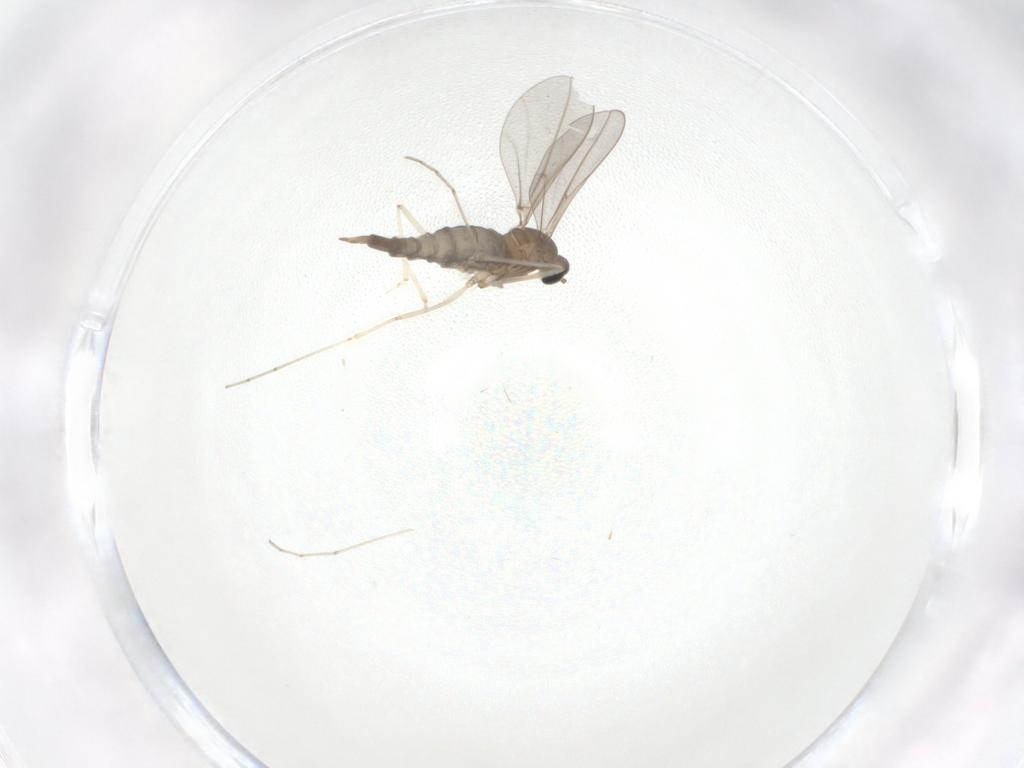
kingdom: Animalia
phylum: Arthropoda
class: Insecta
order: Diptera
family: Cecidomyiidae
